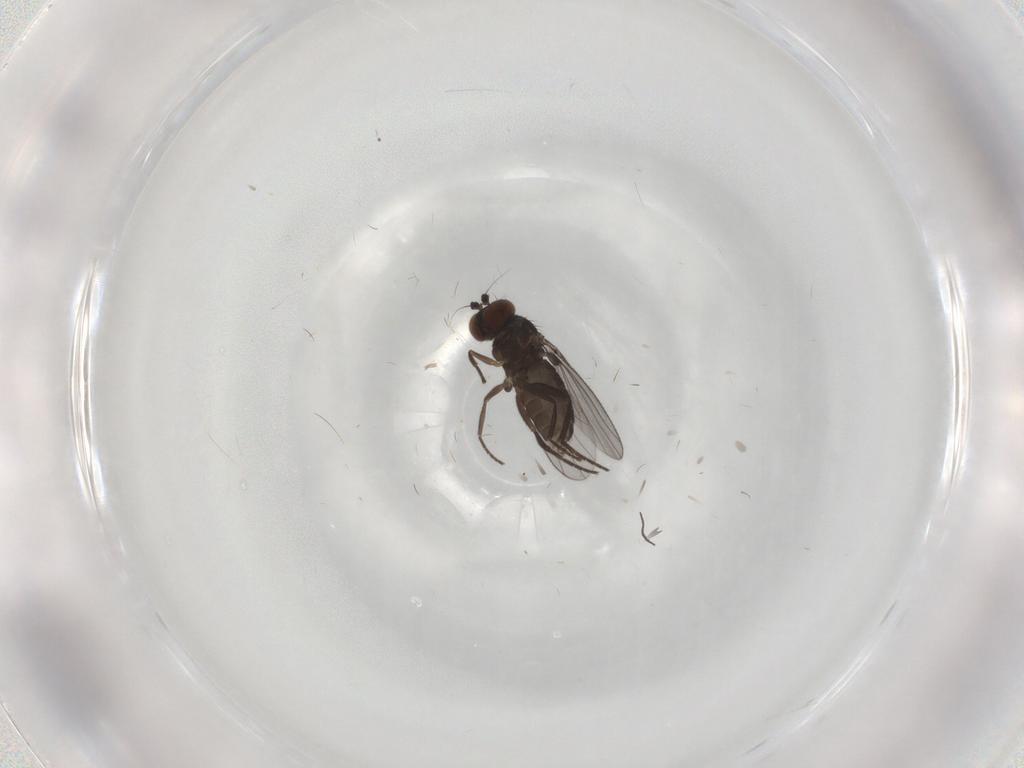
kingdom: Animalia
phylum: Arthropoda
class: Insecta
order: Diptera
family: Dolichopodidae
